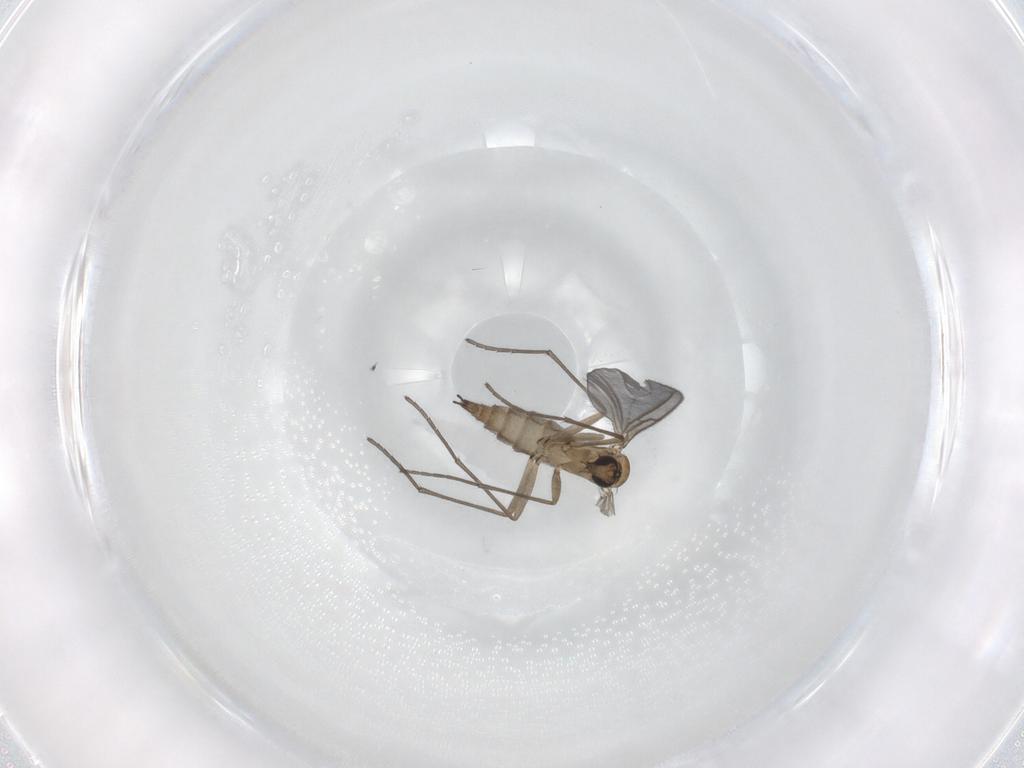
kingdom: Animalia
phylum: Arthropoda
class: Insecta
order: Diptera
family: Sciaridae
